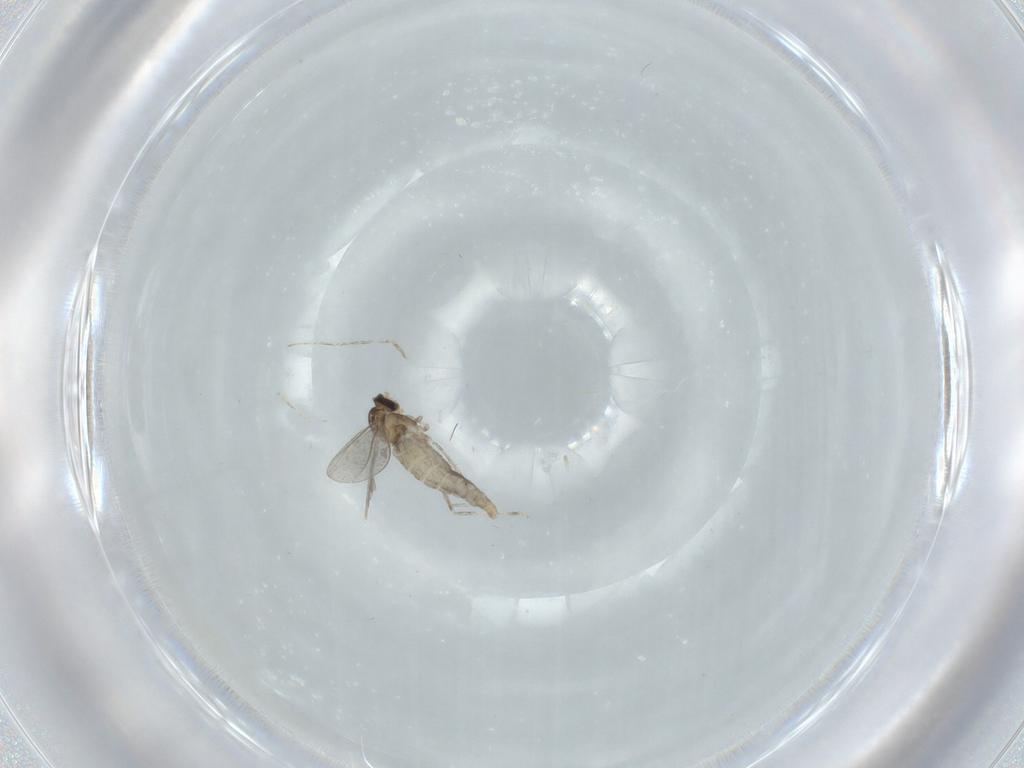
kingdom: Animalia
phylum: Arthropoda
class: Insecta
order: Diptera
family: Cecidomyiidae
